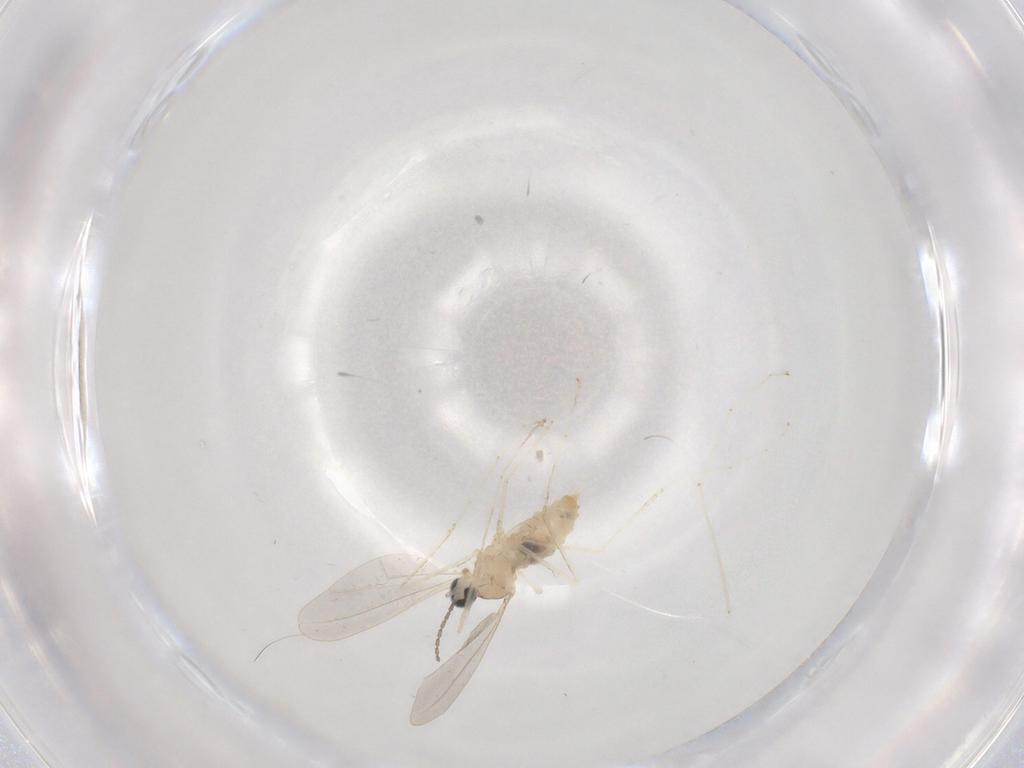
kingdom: Animalia
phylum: Arthropoda
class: Insecta
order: Diptera
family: Cecidomyiidae
